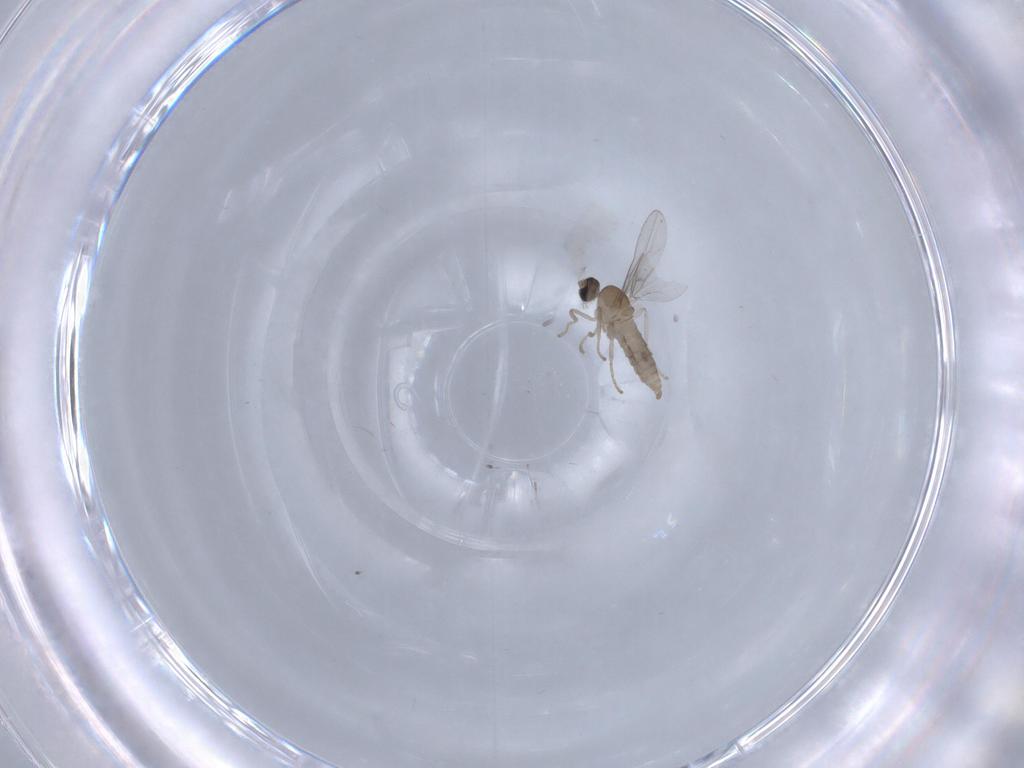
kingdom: Animalia
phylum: Arthropoda
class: Insecta
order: Diptera
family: Cecidomyiidae
